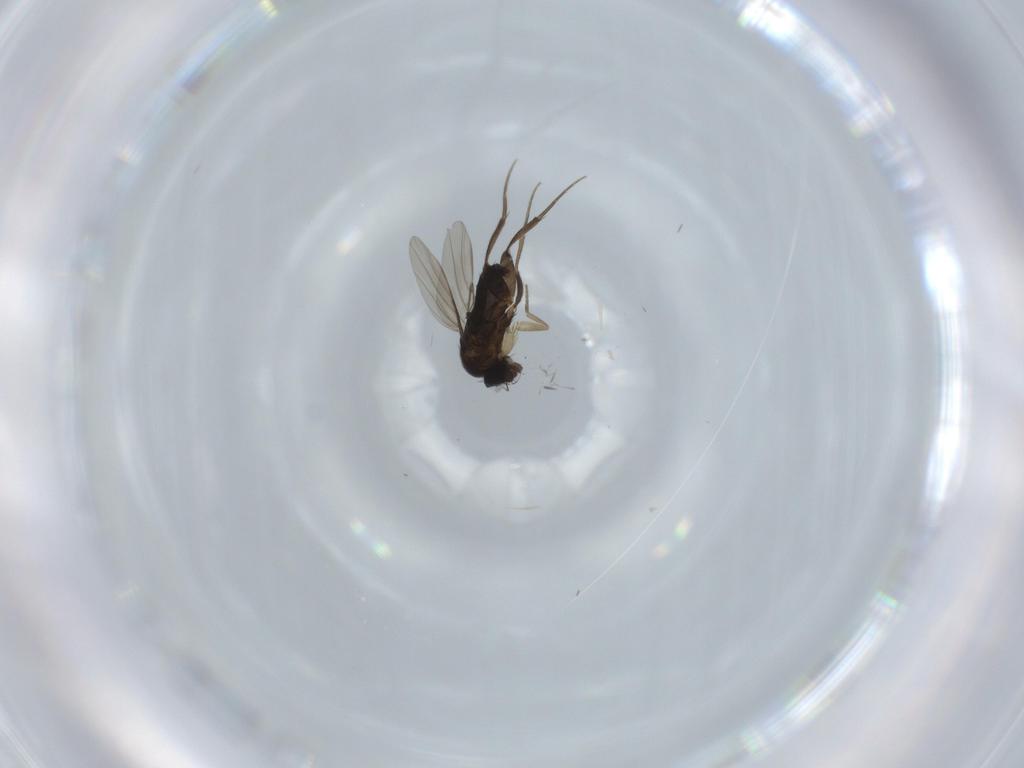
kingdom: Animalia
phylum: Arthropoda
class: Insecta
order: Diptera
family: Phoridae
